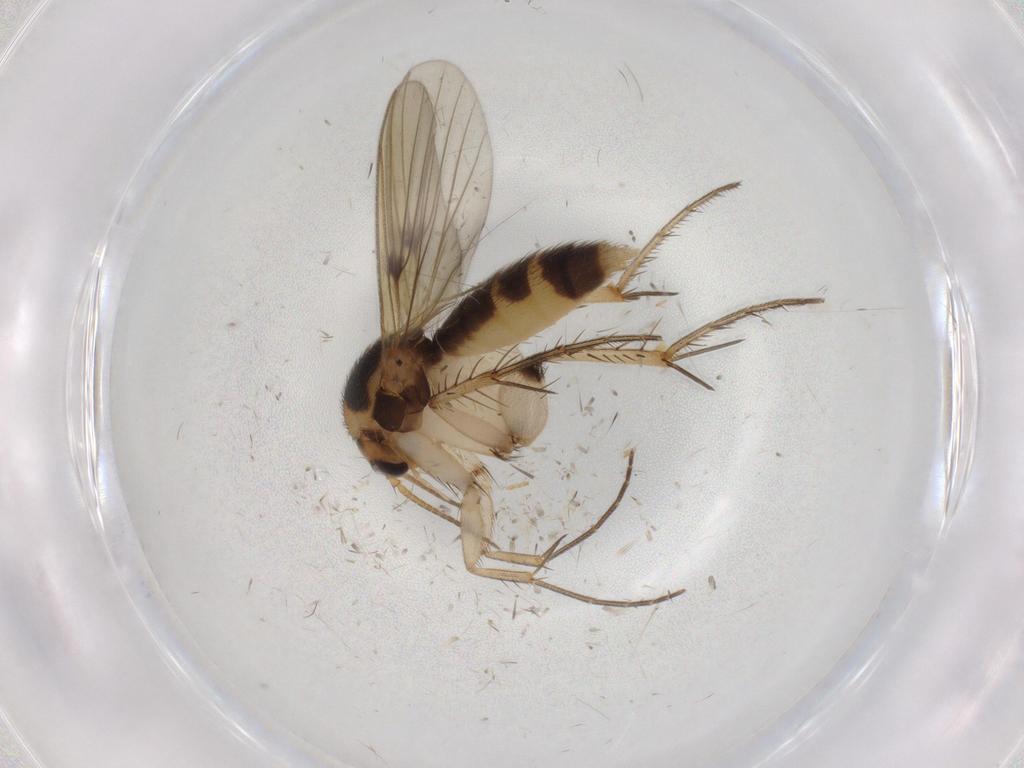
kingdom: Animalia
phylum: Arthropoda
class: Insecta
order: Diptera
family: Mycetophilidae
